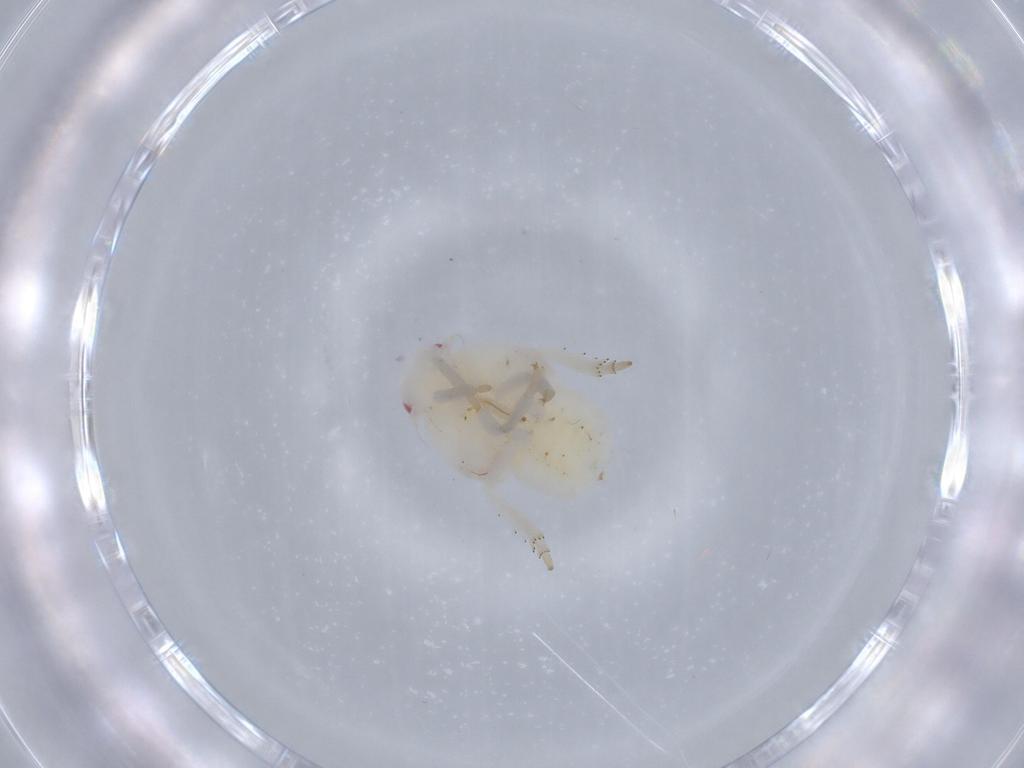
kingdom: Animalia
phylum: Arthropoda
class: Insecta
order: Hemiptera
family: Flatidae
